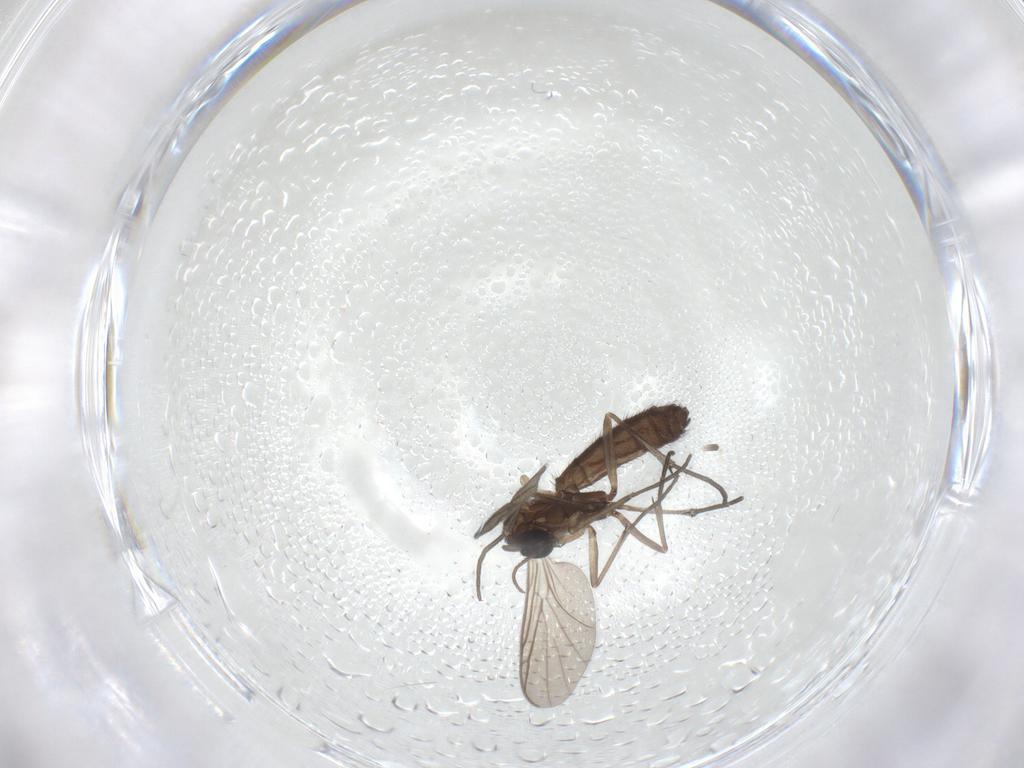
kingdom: Animalia
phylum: Arthropoda
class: Insecta
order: Diptera
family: Keroplatidae
